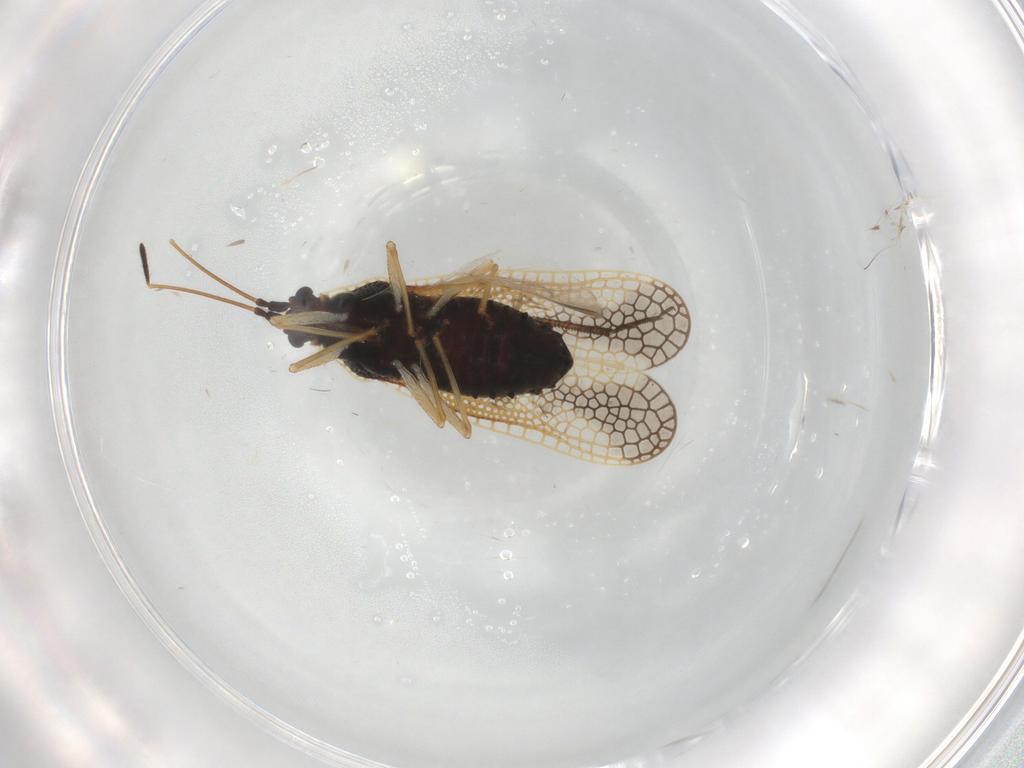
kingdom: Animalia
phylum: Arthropoda
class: Insecta
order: Hemiptera
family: Tingidae
